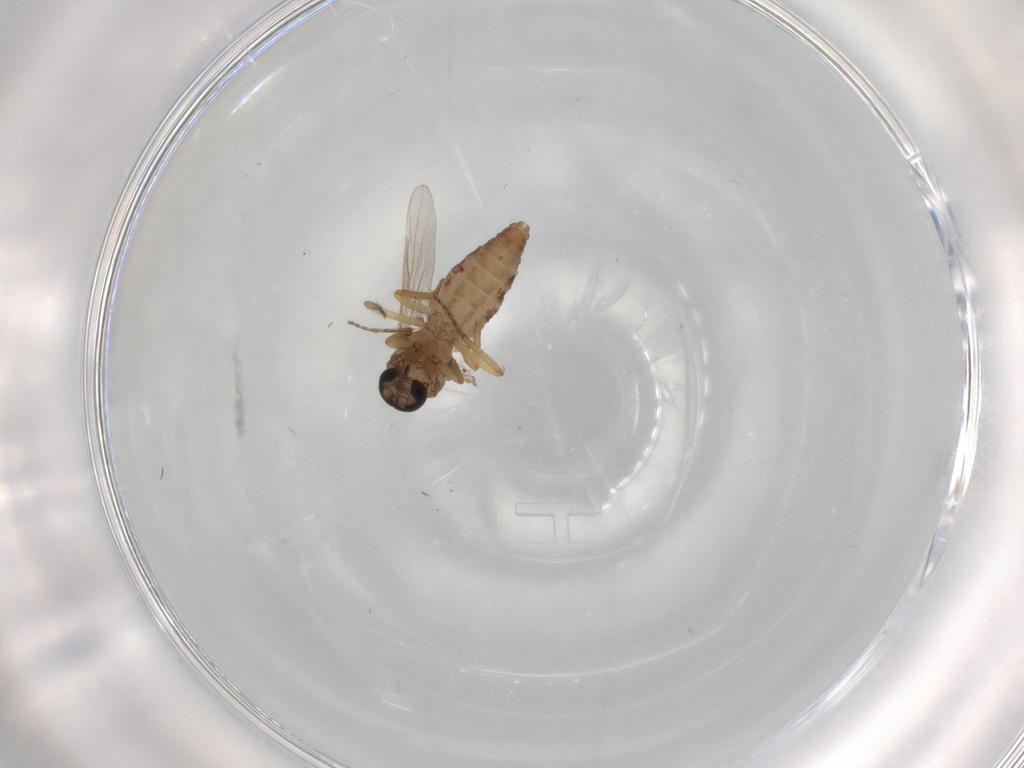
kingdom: Animalia
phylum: Arthropoda
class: Insecta
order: Diptera
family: Ceratopogonidae
